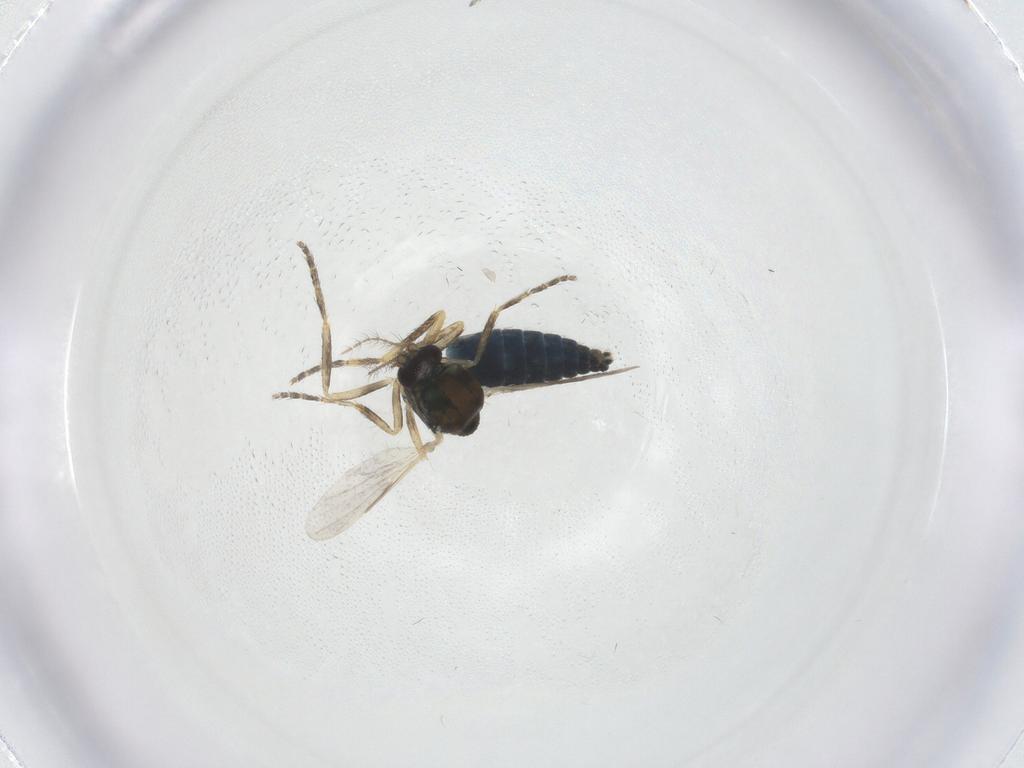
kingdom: Animalia
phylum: Arthropoda
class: Insecta
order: Diptera
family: Ceratopogonidae
